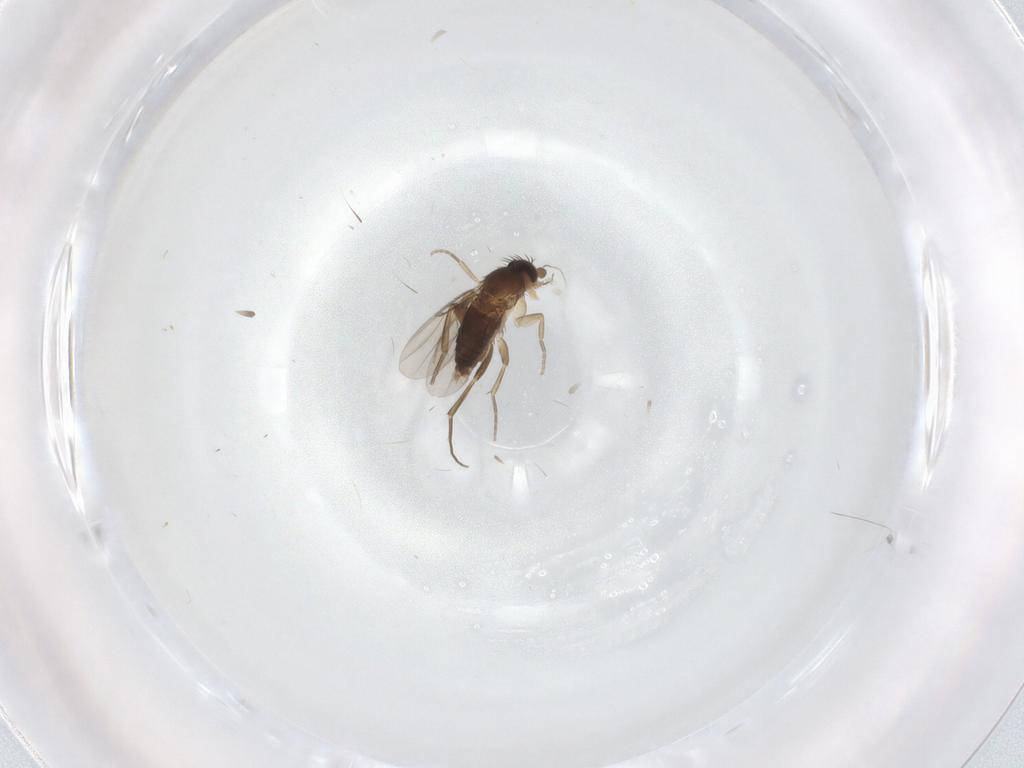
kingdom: Animalia
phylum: Arthropoda
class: Insecta
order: Diptera
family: Phoridae
